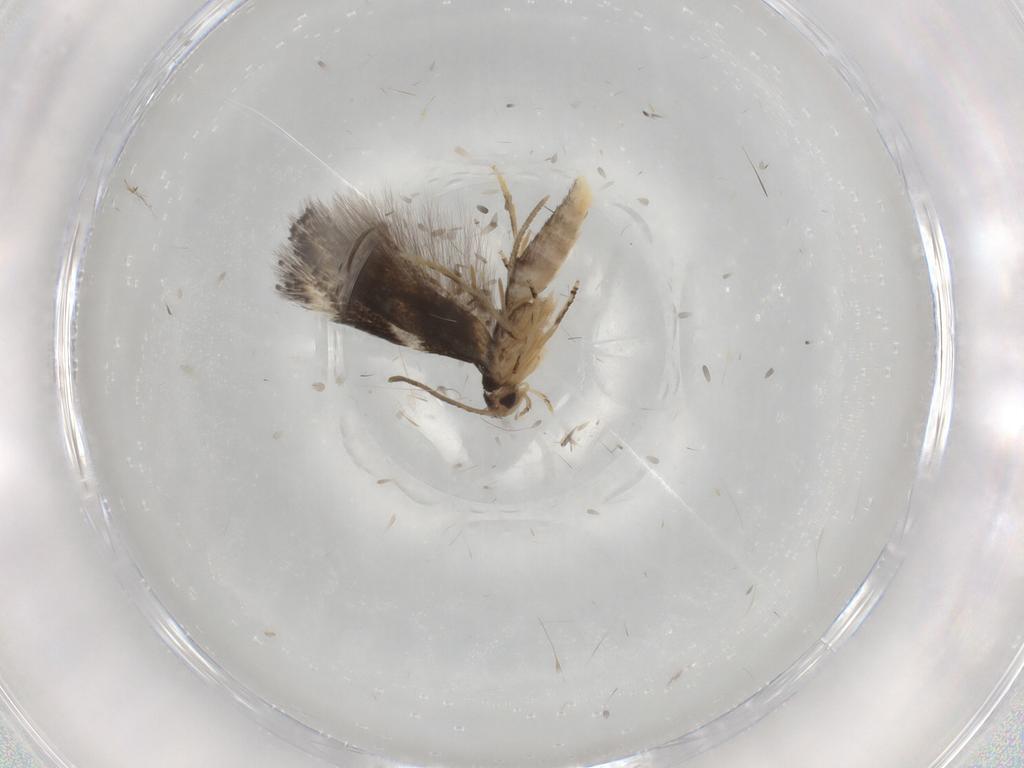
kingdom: Animalia
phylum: Arthropoda
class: Insecta
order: Lepidoptera
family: Elachistidae
